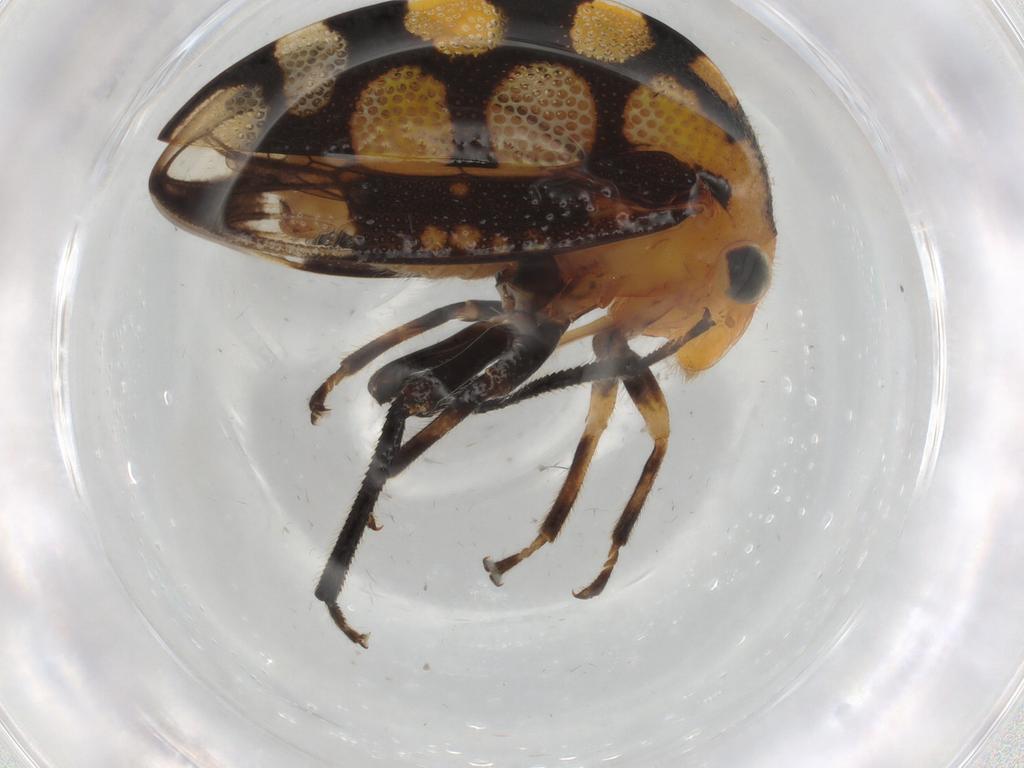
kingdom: Animalia
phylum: Arthropoda
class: Insecta
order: Hemiptera
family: Membracidae
